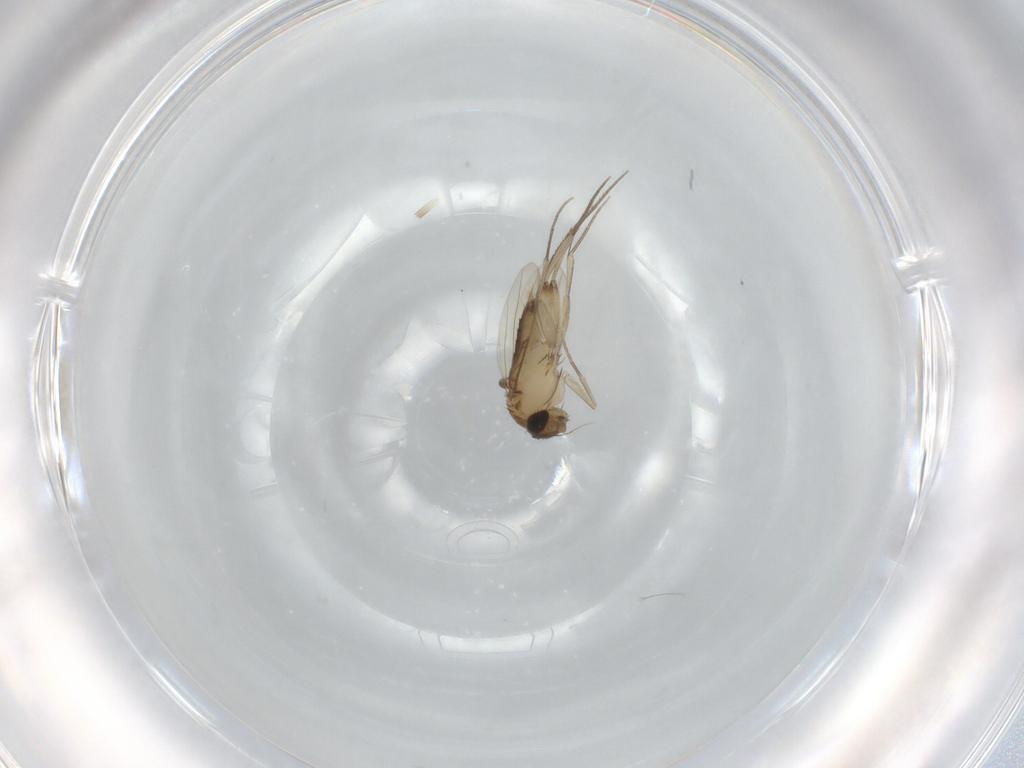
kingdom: Animalia
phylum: Arthropoda
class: Insecta
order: Diptera
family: Phoridae
